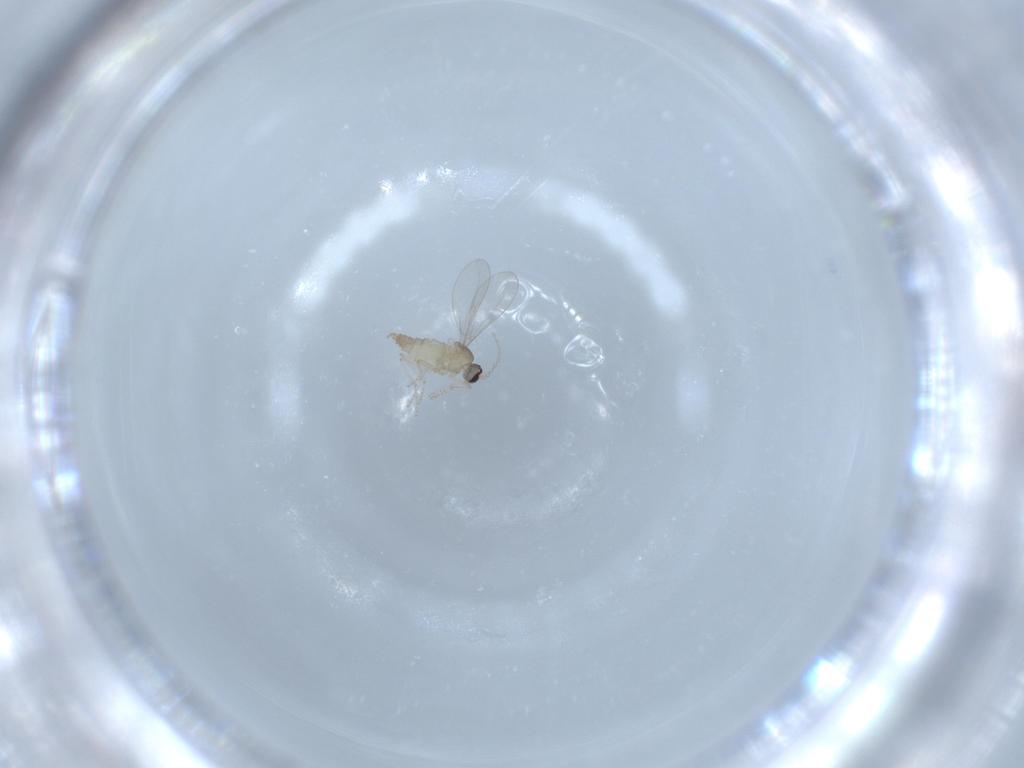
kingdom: Animalia
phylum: Arthropoda
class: Insecta
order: Diptera
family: Cecidomyiidae
